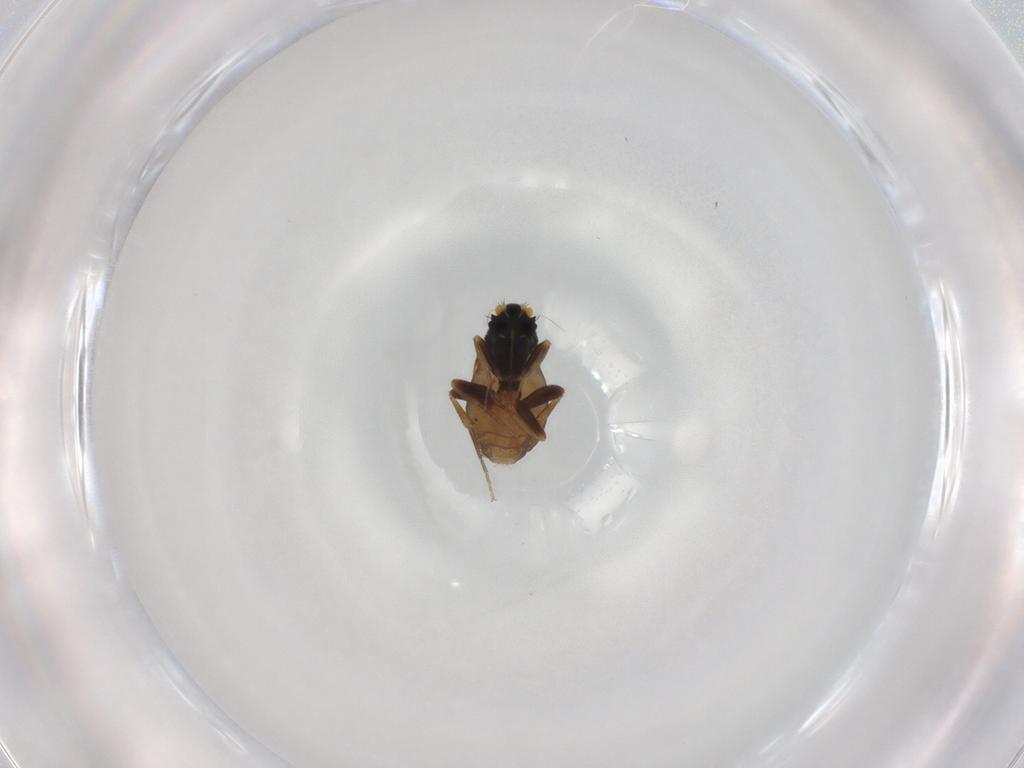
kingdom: Animalia
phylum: Arthropoda
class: Insecta
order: Diptera
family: Phoridae
